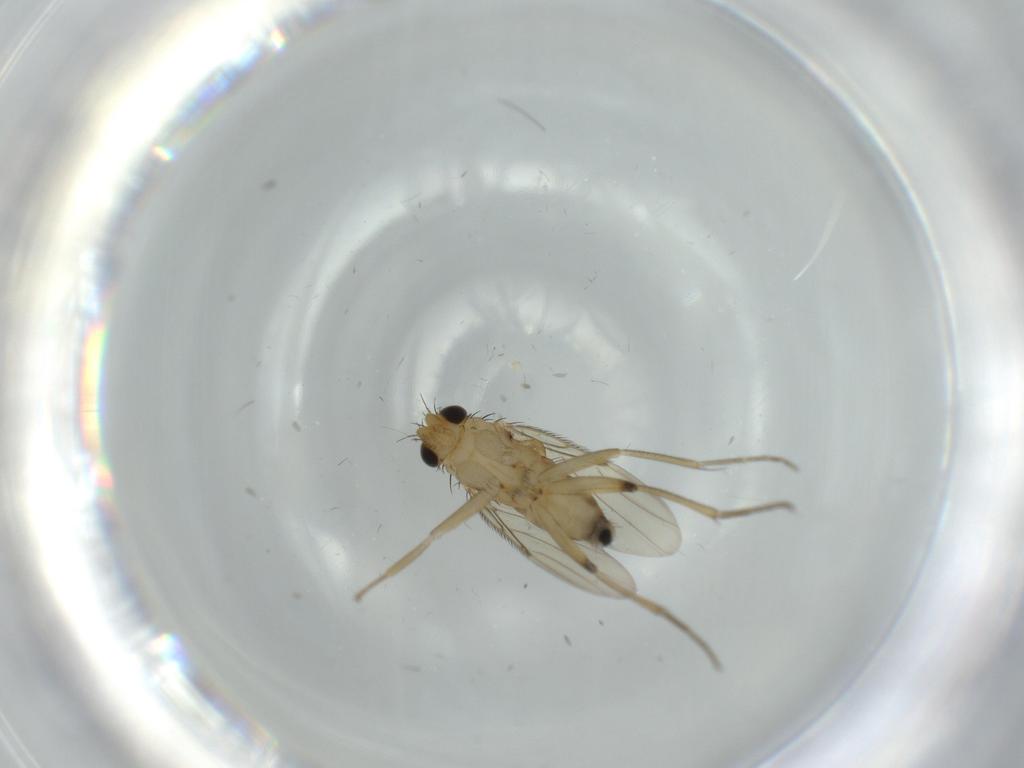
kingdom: Animalia
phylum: Arthropoda
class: Insecta
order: Diptera
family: Phoridae
